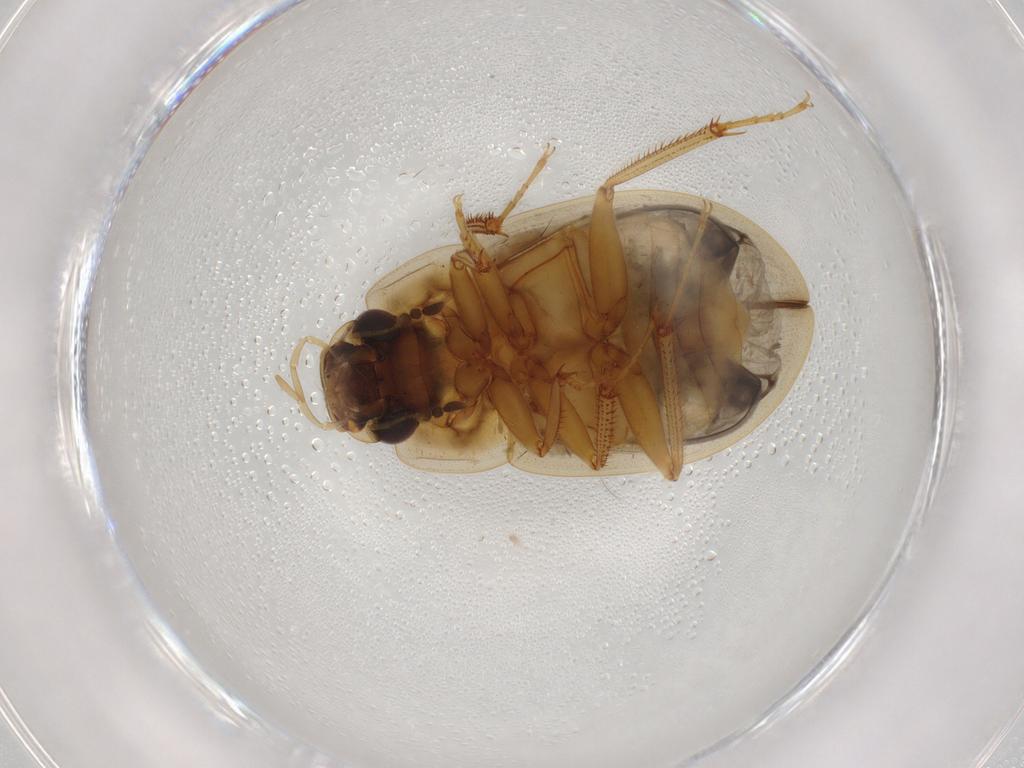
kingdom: Animalia
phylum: Arthropoda
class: Insecta
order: Coleoptera
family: Hydrophilidae
